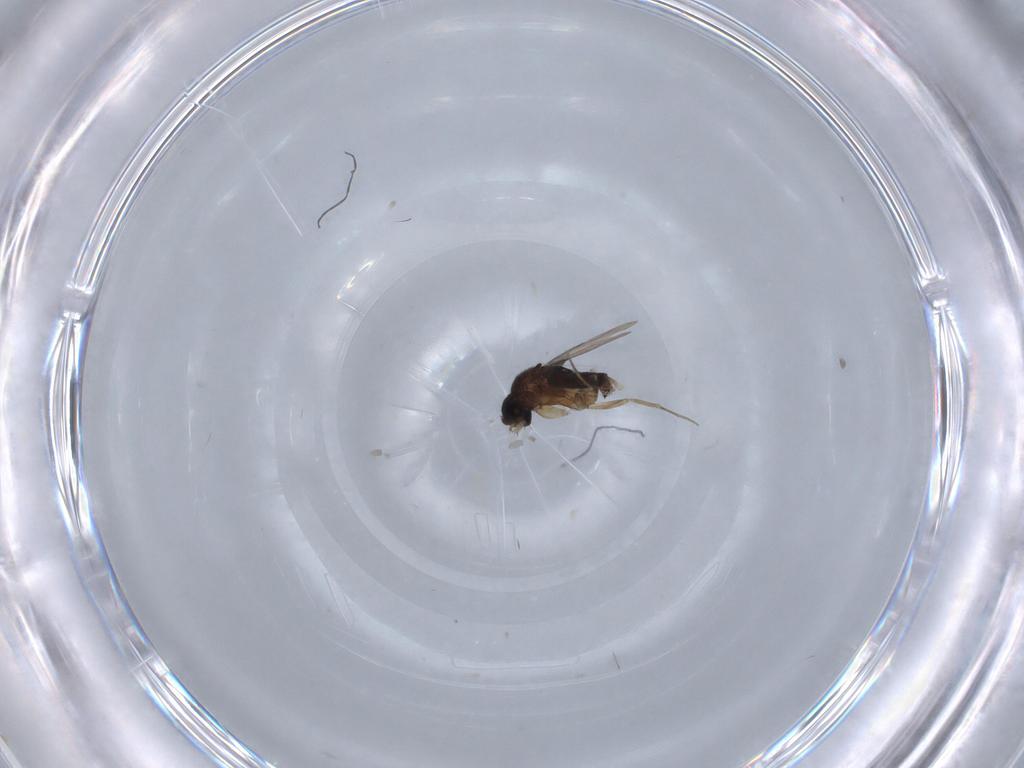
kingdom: Animalia
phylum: Arthropoda
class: Insecta
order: Diptera
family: Phoridae
